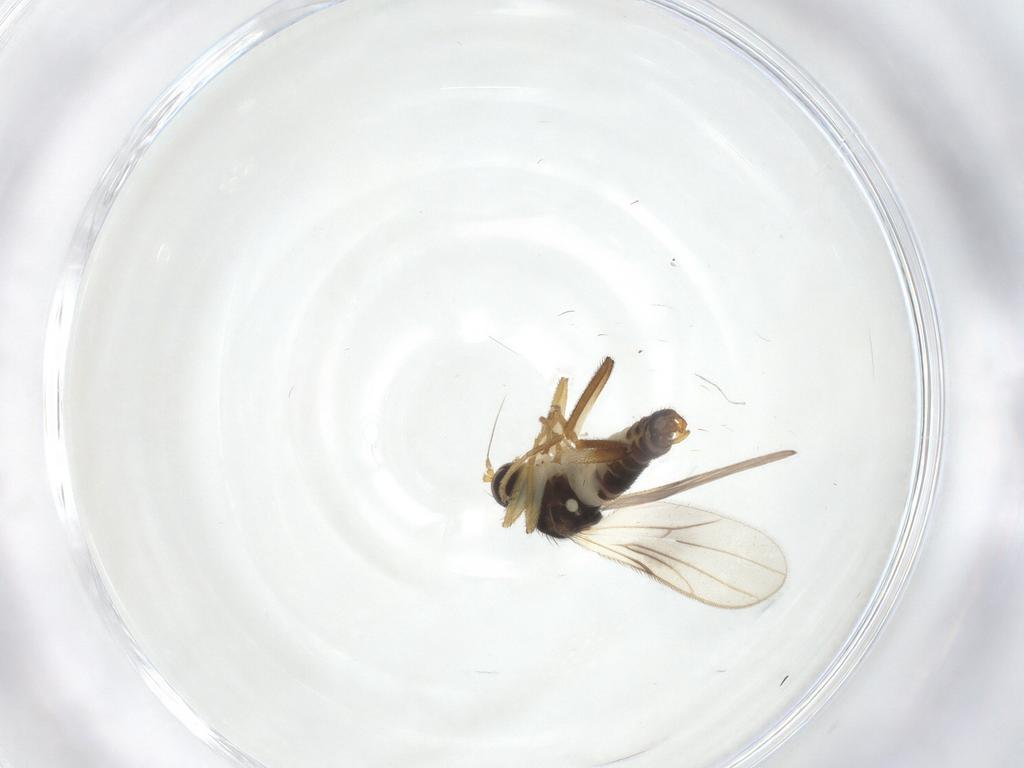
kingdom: Animalia
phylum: Arthropoda
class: Insecta
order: Diptera
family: Hybotidae
